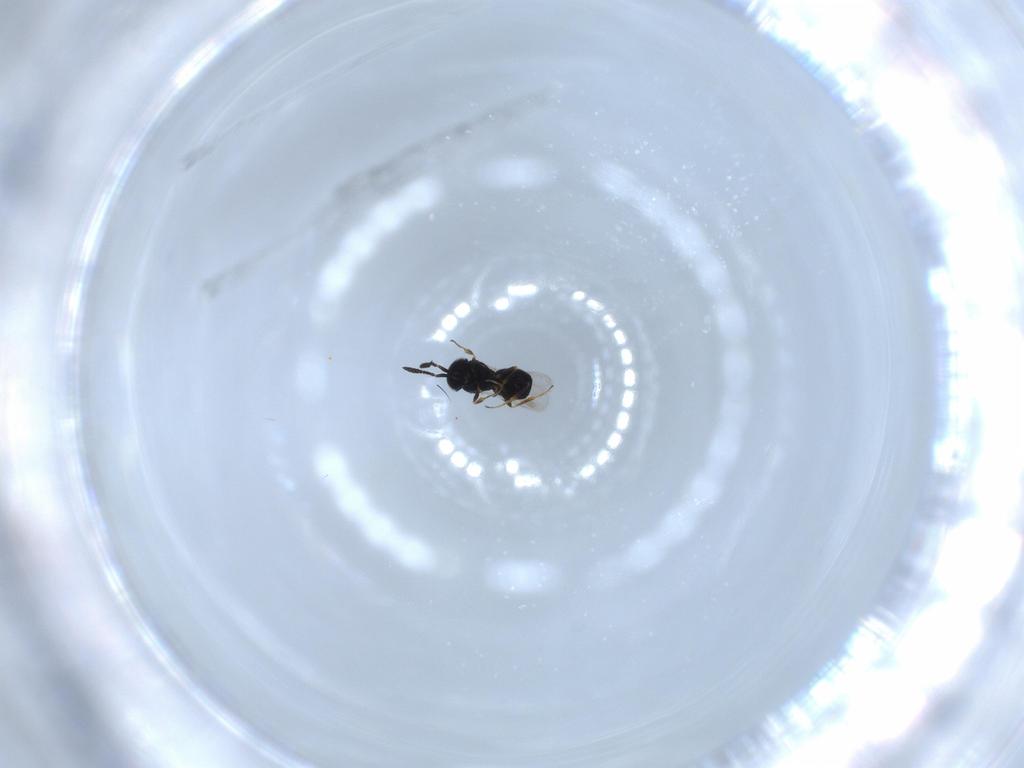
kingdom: Animalia
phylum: Arthropoda
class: Insecta
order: Hymenoptera
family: Scelionidae
